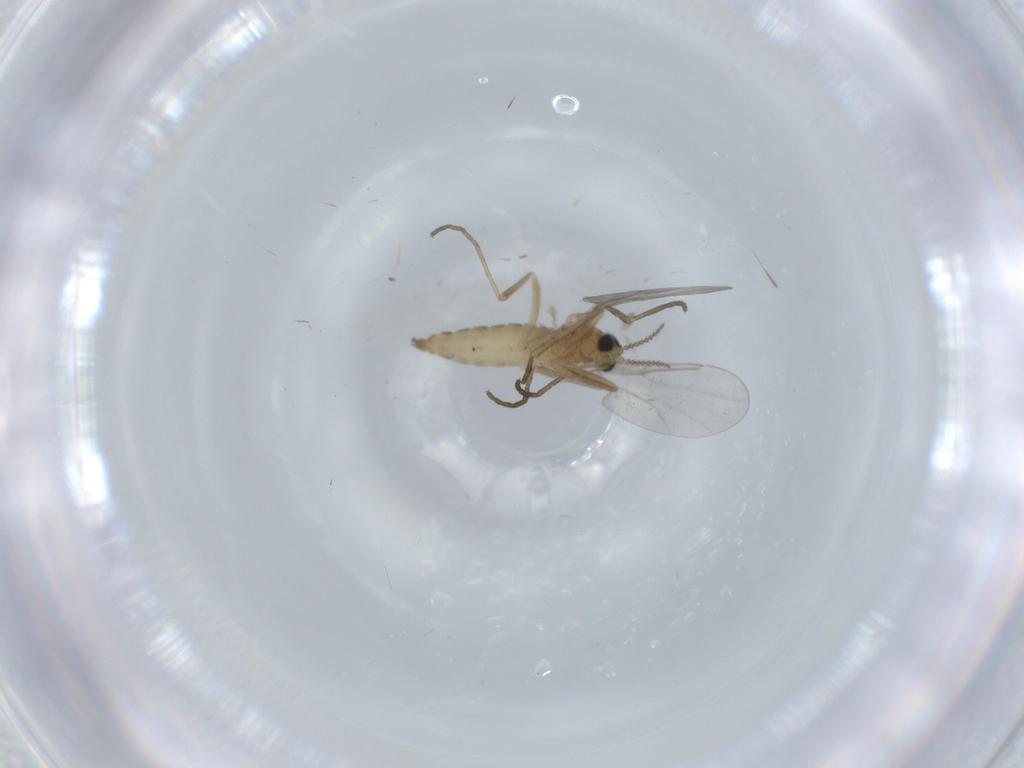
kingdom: Animalia
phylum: Arthropoda
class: Insecta
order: Diptera
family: Cecidomyiidae
